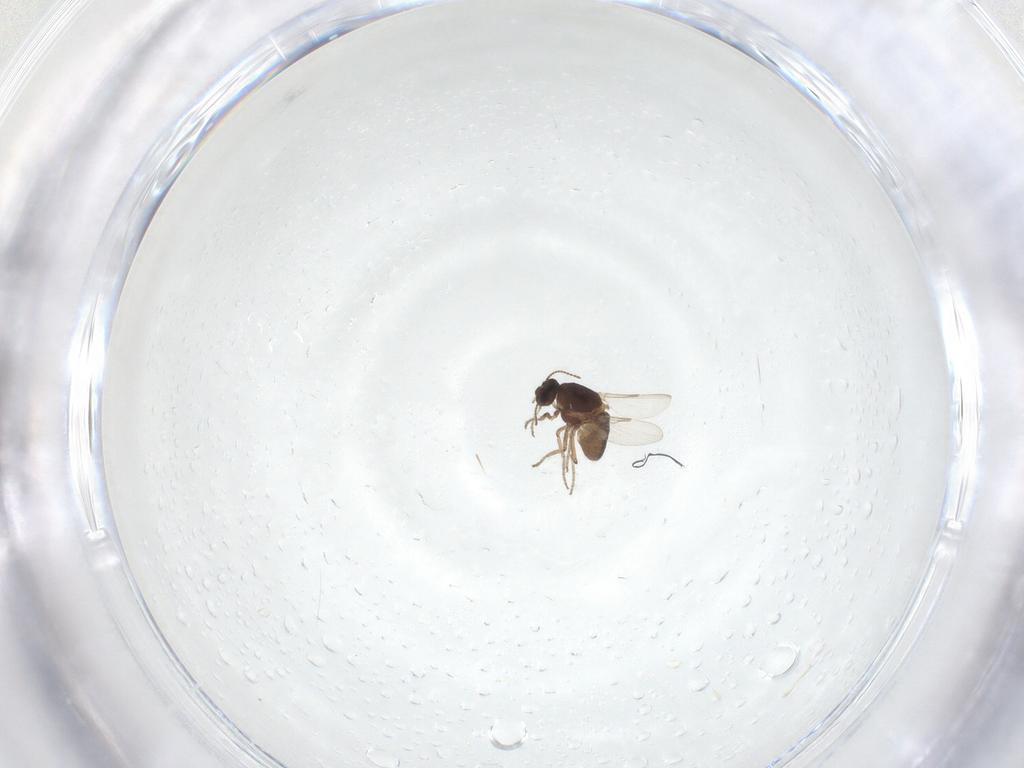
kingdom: Animalia
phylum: Arthropoda
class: Insecta
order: Diptera
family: Ceratopogonidae
